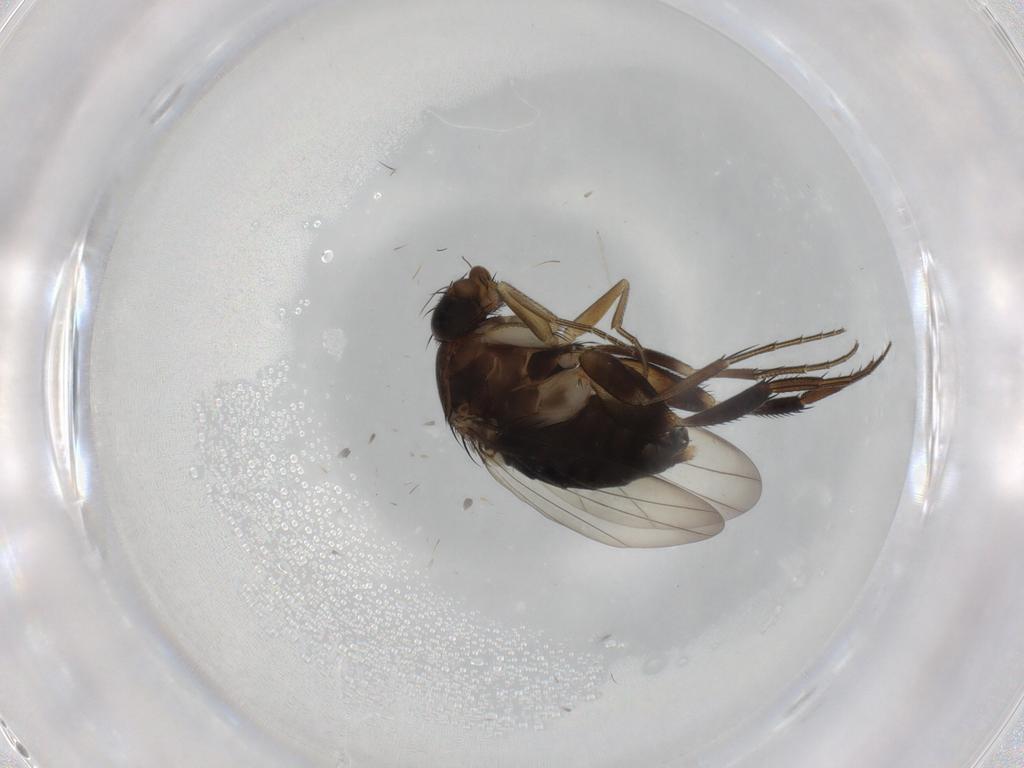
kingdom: Animalia
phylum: Arthropoda
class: Insecta
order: Diptera
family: Phoridae
